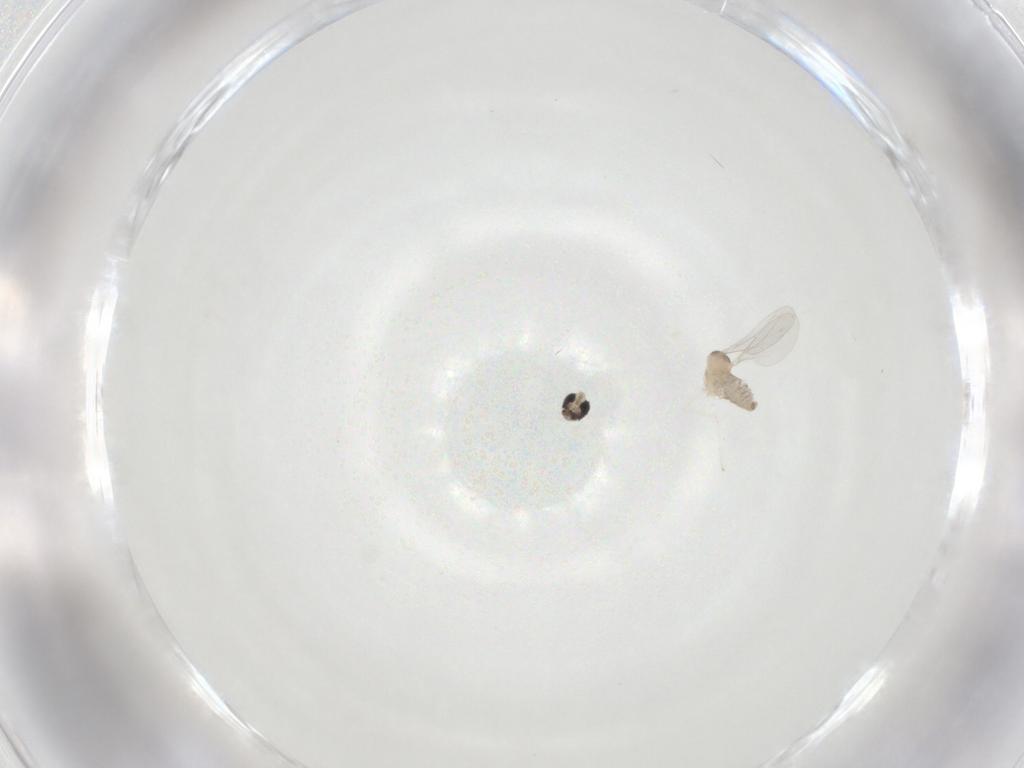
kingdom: Animalia
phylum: Arthropoda
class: Insecta
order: Diptera
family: Cecidomyiidae
